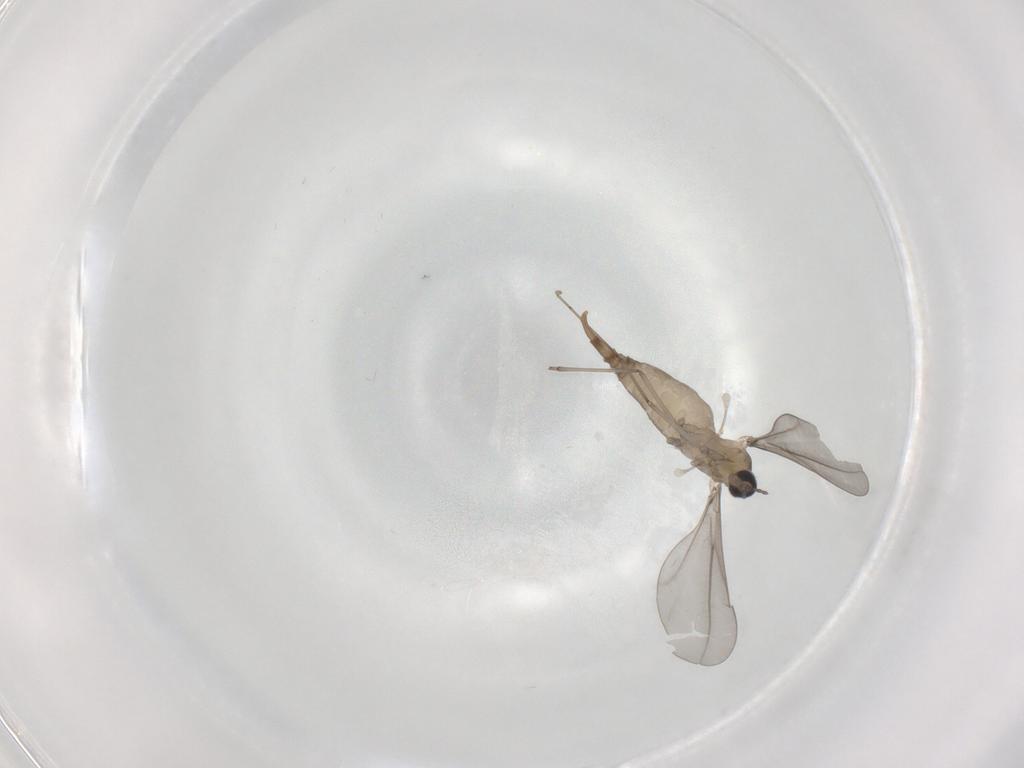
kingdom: Animalia
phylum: Arthropoda
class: Insecta
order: Diptera
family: Cecidomyiidae
